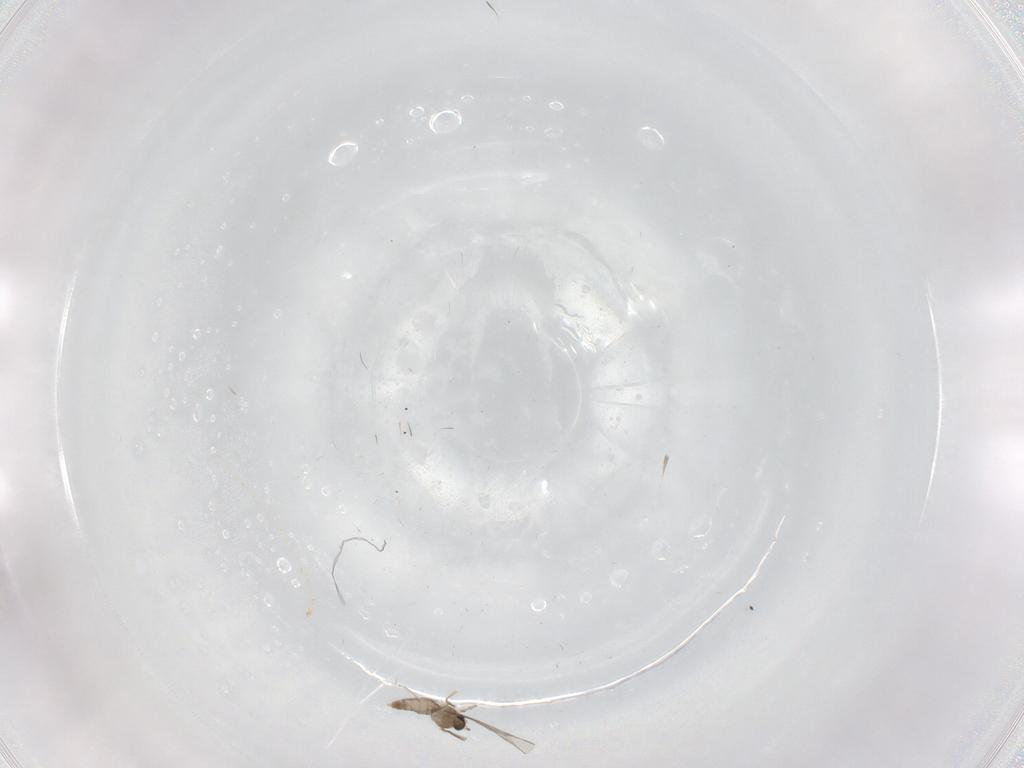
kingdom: Animalia
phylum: Arthropoda
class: Insecta
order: Diptera
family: Tabanidae
